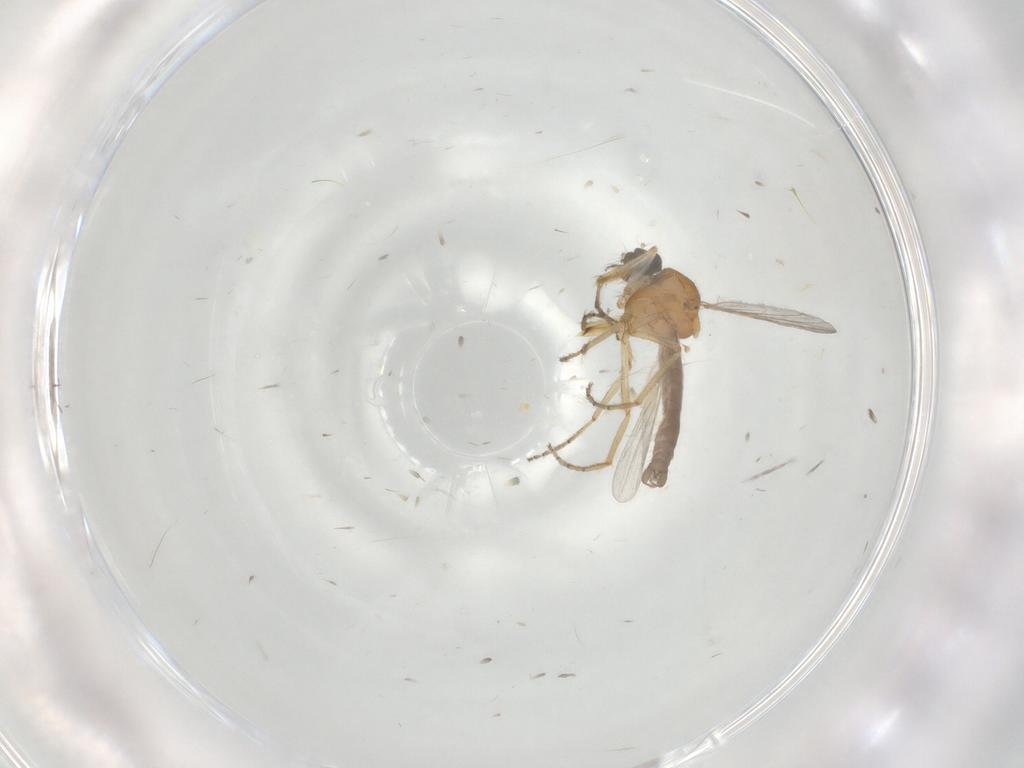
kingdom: Animalia
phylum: Arthropoda
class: Insecta
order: Diptera
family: Ceratopogonidae
